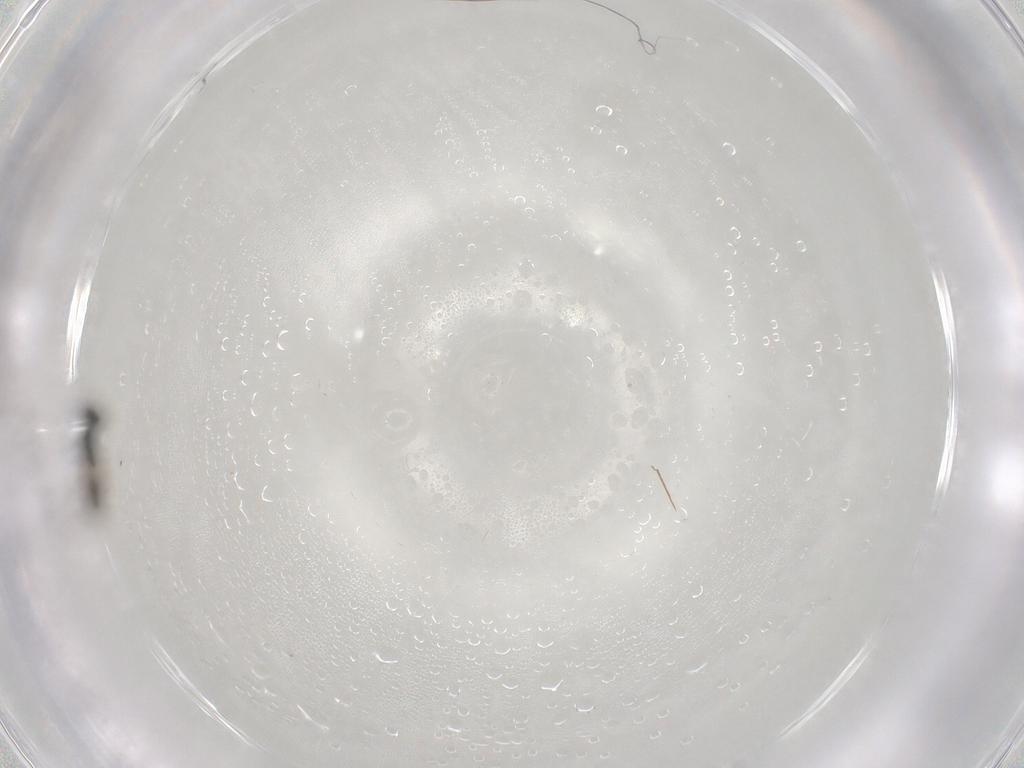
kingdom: Animalia
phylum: Arthropoda
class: Insecta
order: Hymenoptera
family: Scelionidae
